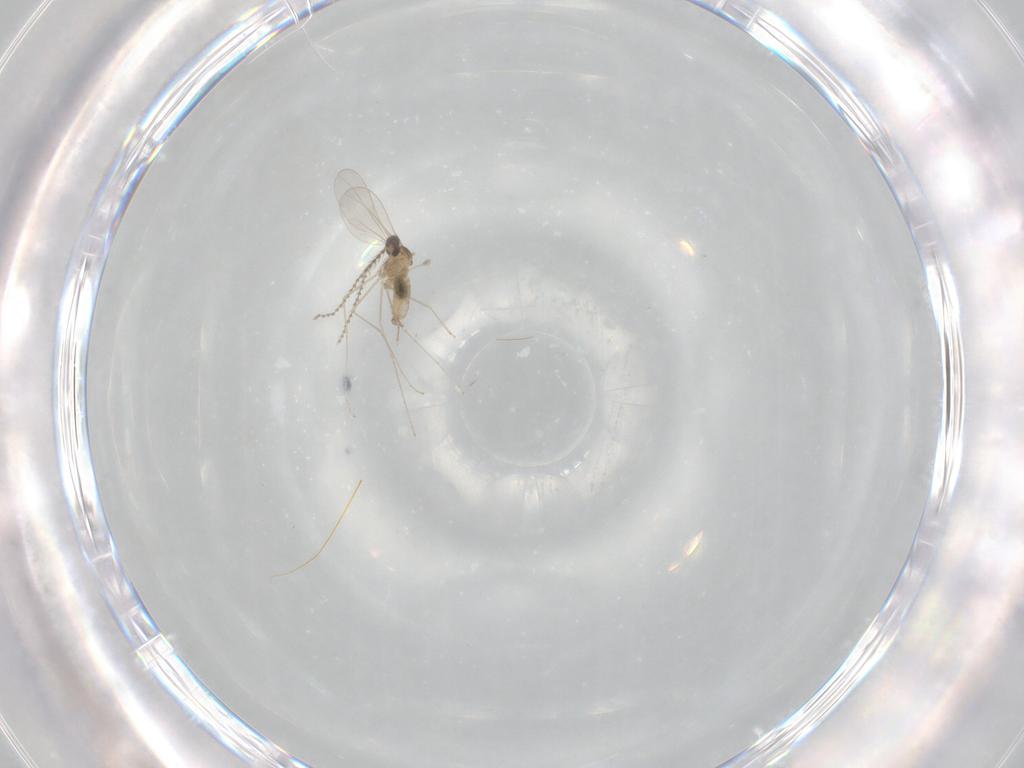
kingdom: Animalia
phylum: Arthropoda
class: Insecta
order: Diptera
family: Cecidomyiidae
